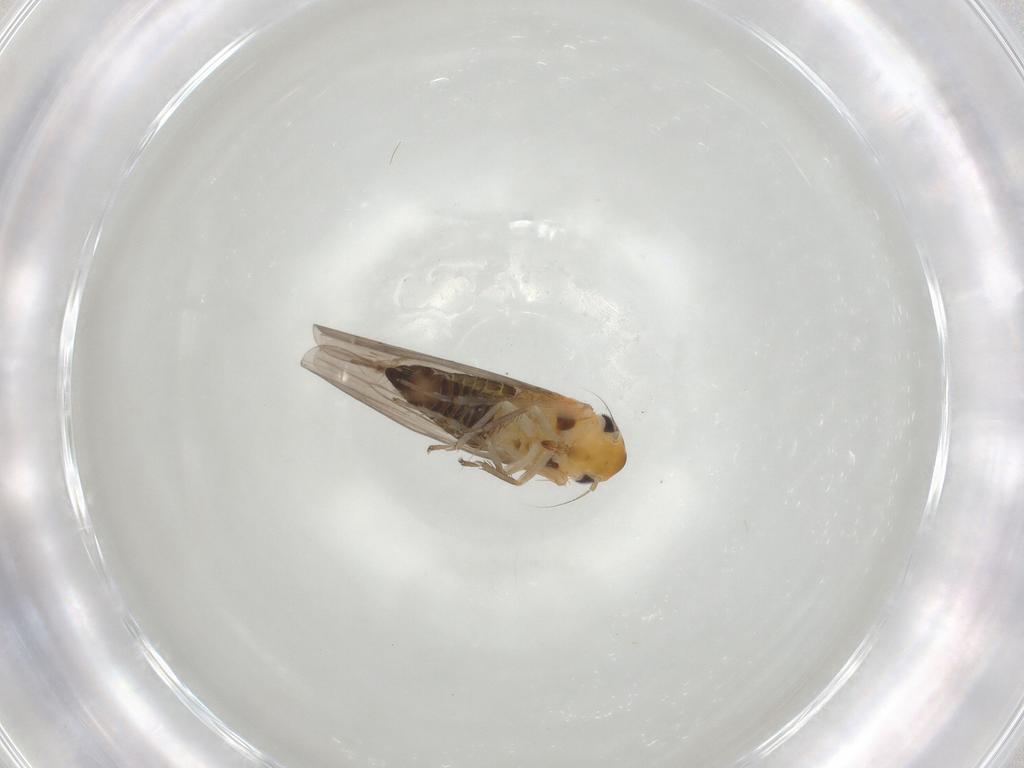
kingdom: Animalia
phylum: Arthropoda
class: Insecta
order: Hemiptera
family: Cicadellidae
